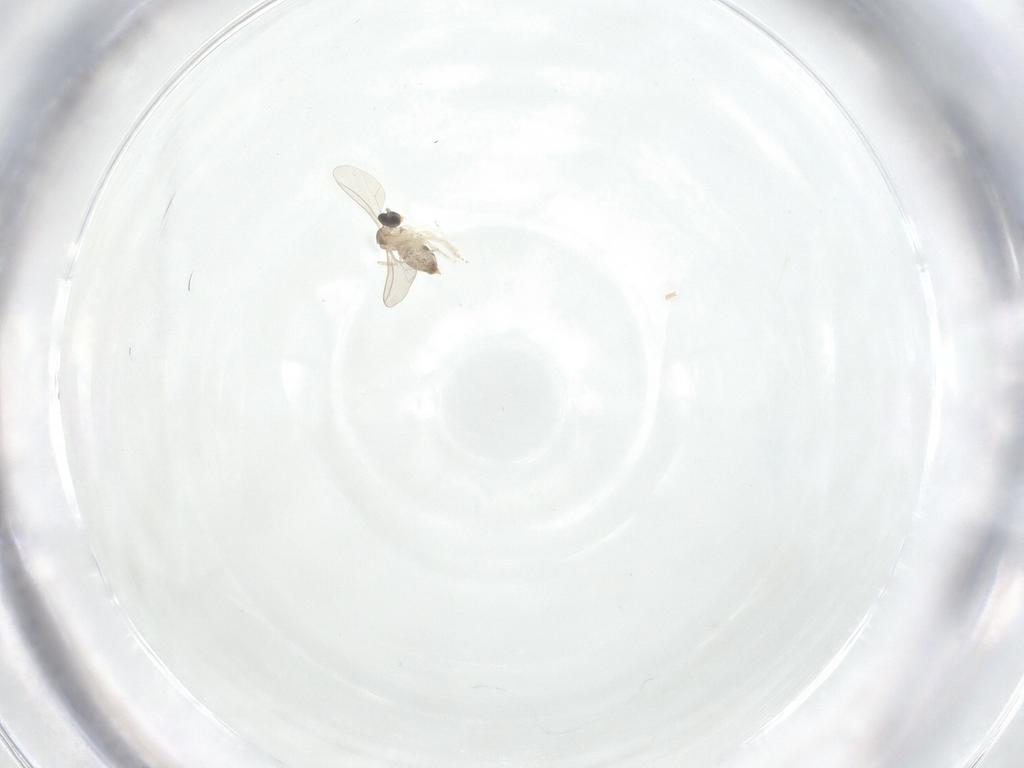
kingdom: Animalia
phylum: Arthropoda
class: Insecta
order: Diptera
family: Cecidomyiidae
